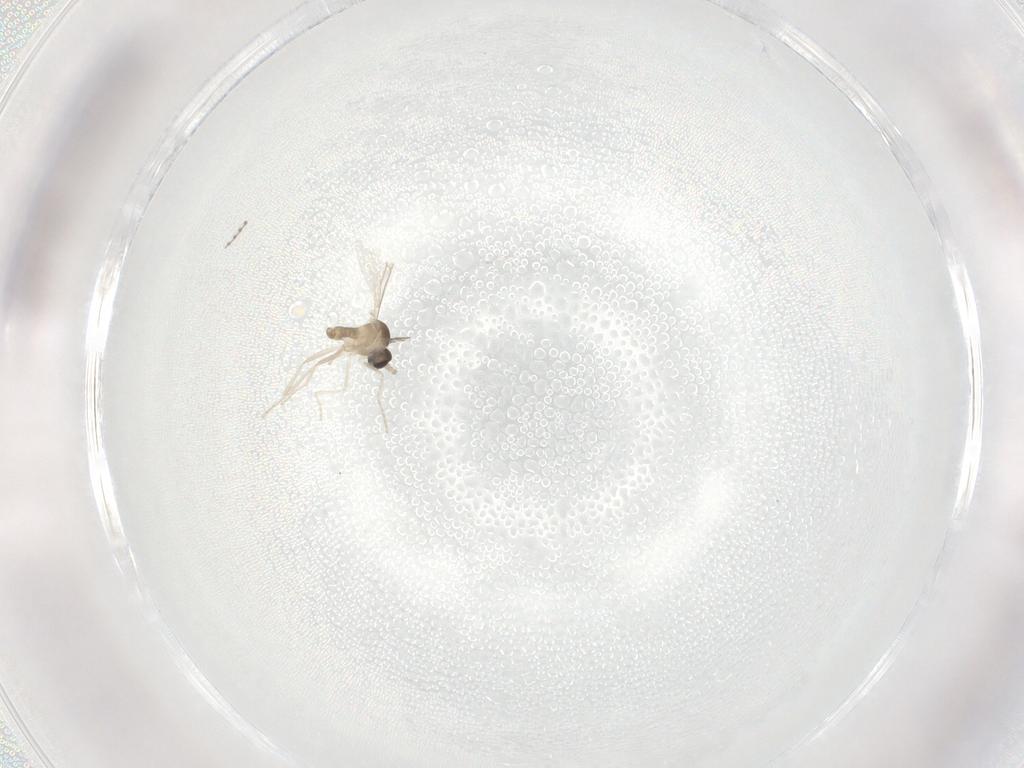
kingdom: Animalia
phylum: Arthropoda
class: Insecta
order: Diptera
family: Cecidomyiidae
